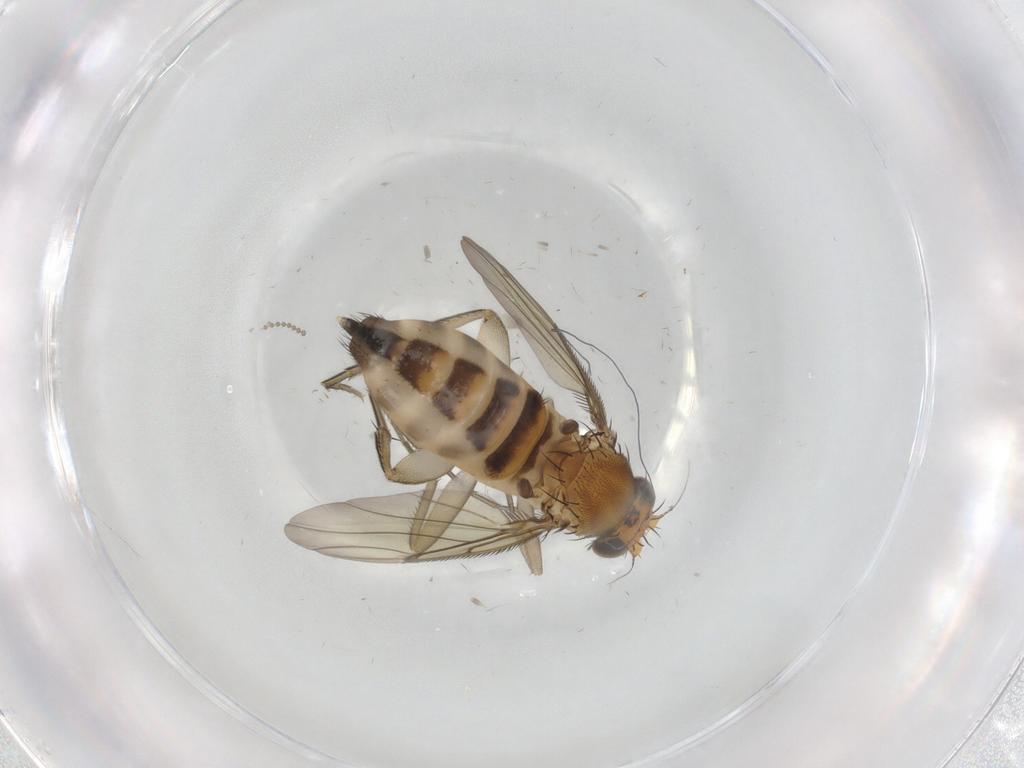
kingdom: Animalia
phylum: Arthropoda
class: Insecta
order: Diptera
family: Phoridae
